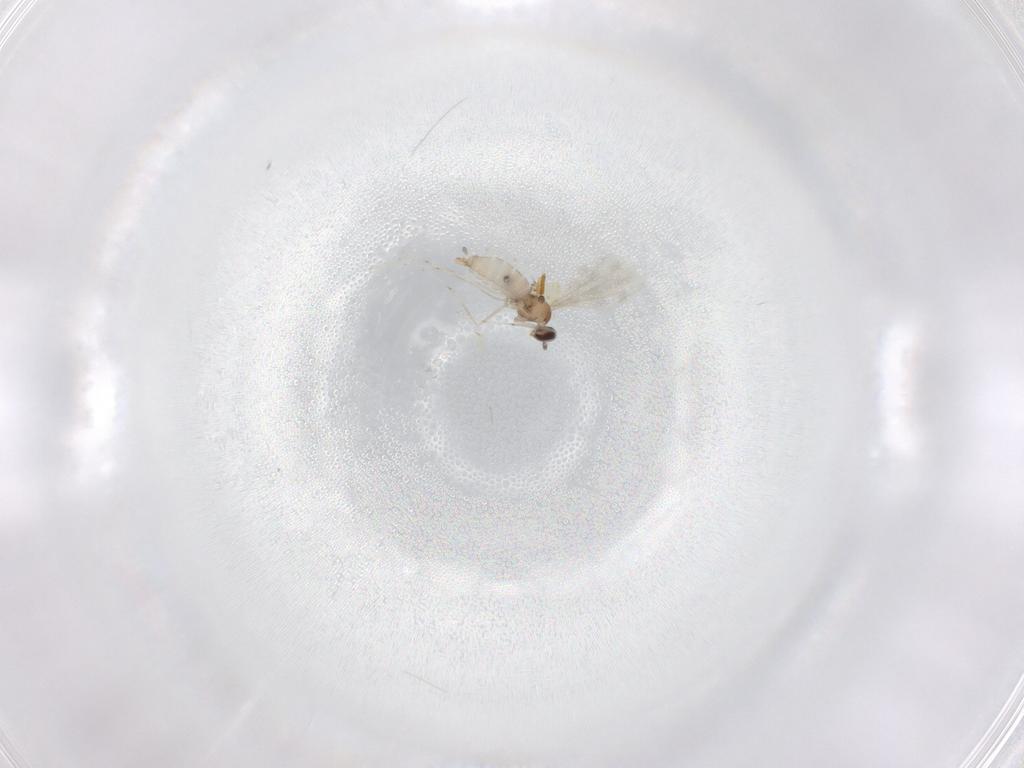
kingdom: Animalia
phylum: Arthropoda
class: Insecta
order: Diptera
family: Cecidomyiidae
